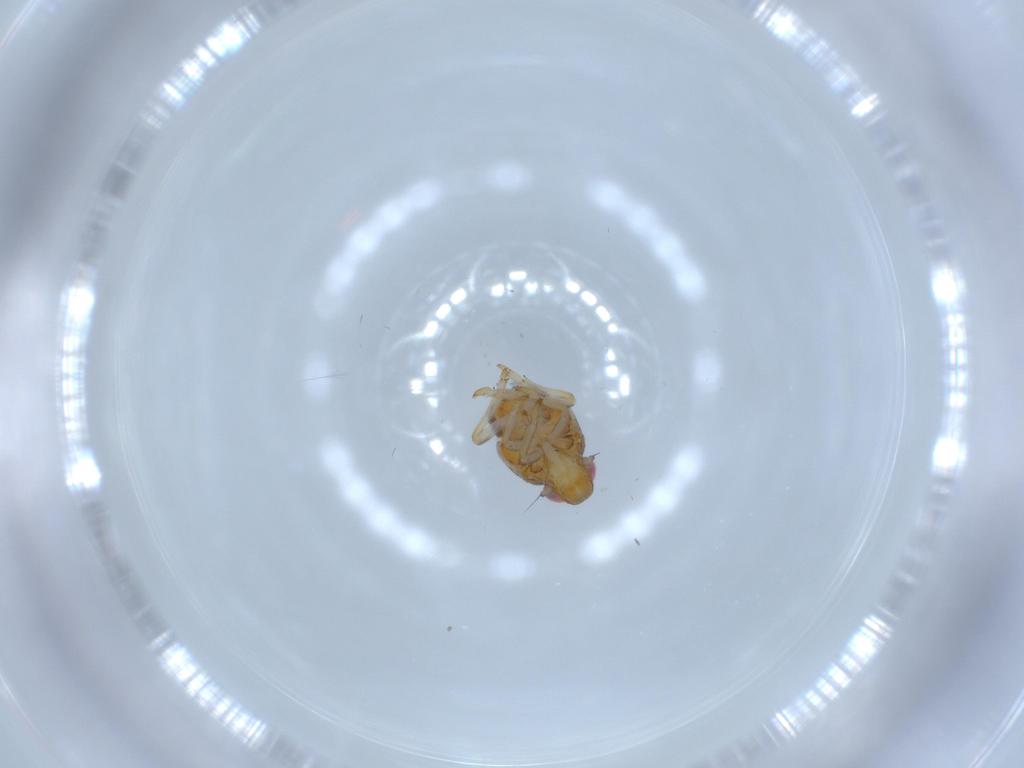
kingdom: Animalia
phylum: Arthropoda
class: Insecta
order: Hemiptera
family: Issidae
